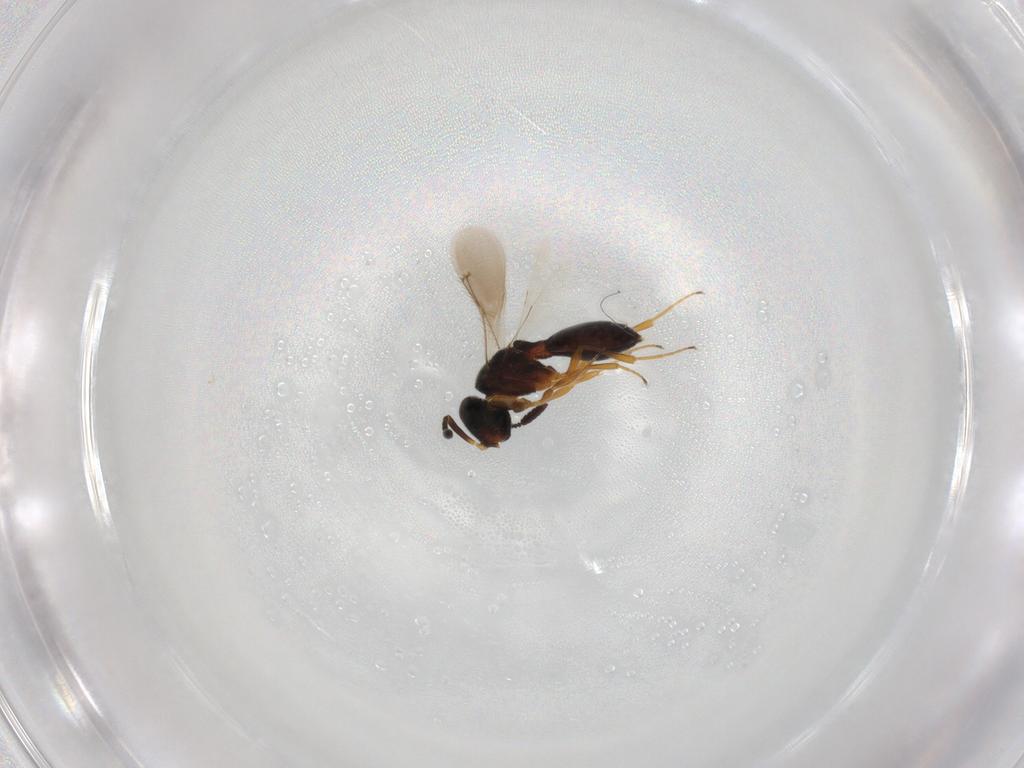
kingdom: Animalia
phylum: Arthropoda
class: Insecta
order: Hymenoptera
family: Scelionidae
